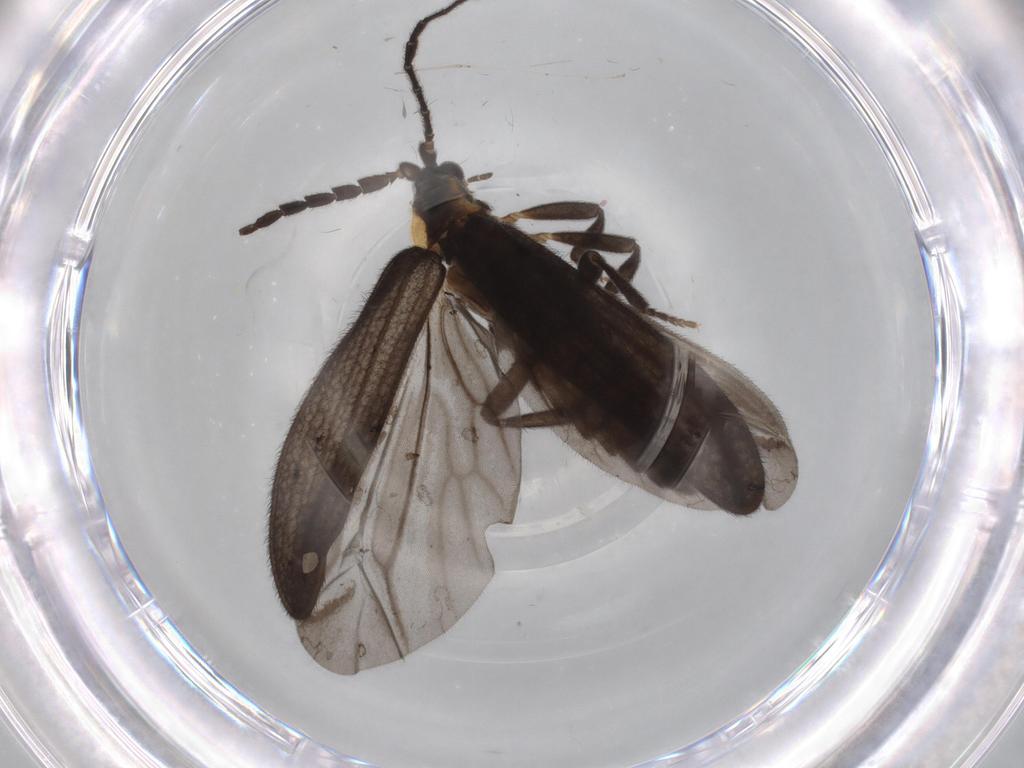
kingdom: Animalia
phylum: Arthropoda
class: Insecta
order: Coleoptera
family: Lycidae
